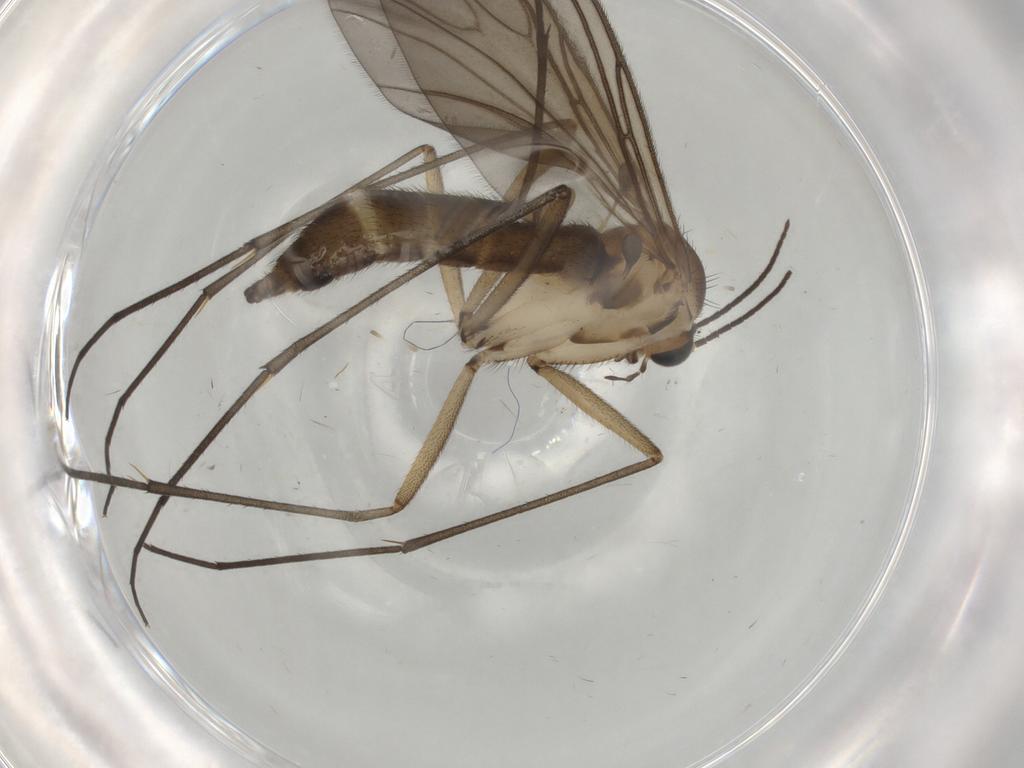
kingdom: Animalia
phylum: Arthropoda
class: Insecta
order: Diptera
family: Sciaridae
